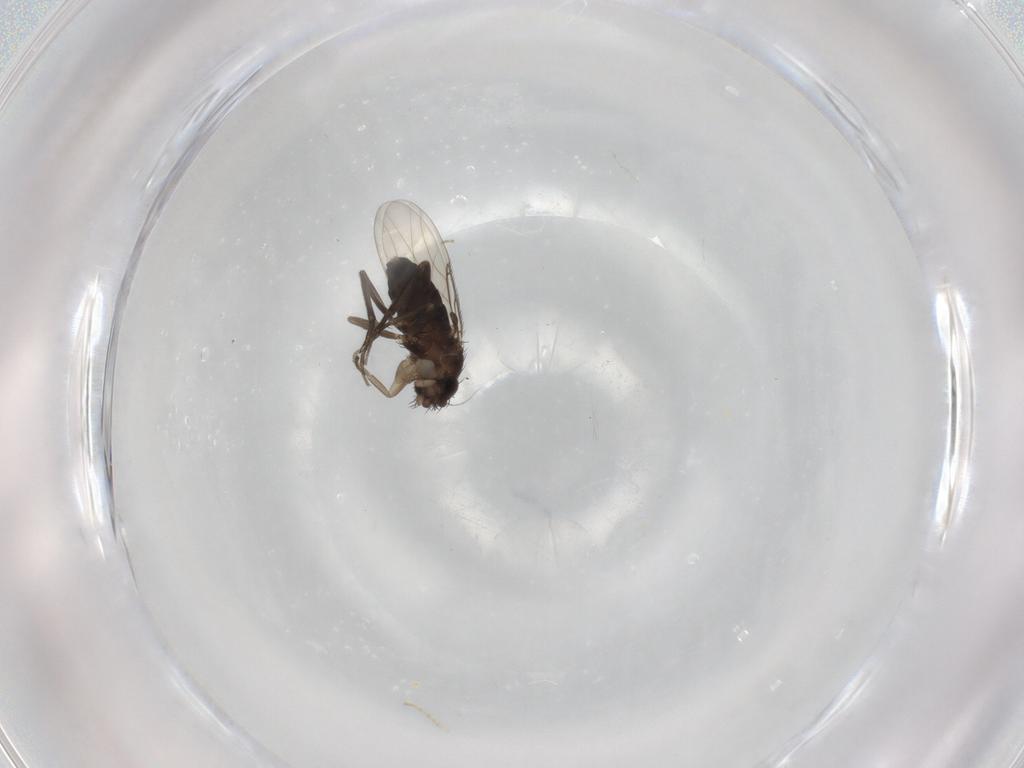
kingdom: Animalia
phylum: Arthropoda
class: Insecta
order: Diptera
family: Phoridae
